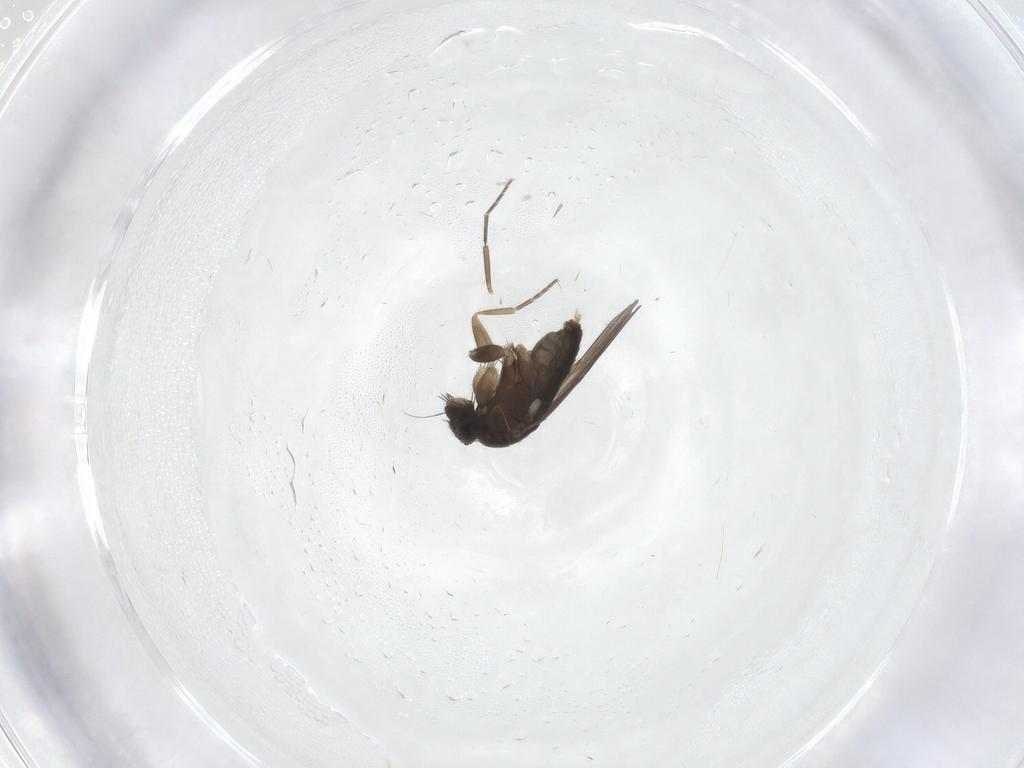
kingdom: Animalia
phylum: Arthropoda
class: Insecta
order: Diptera
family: Phoridae
